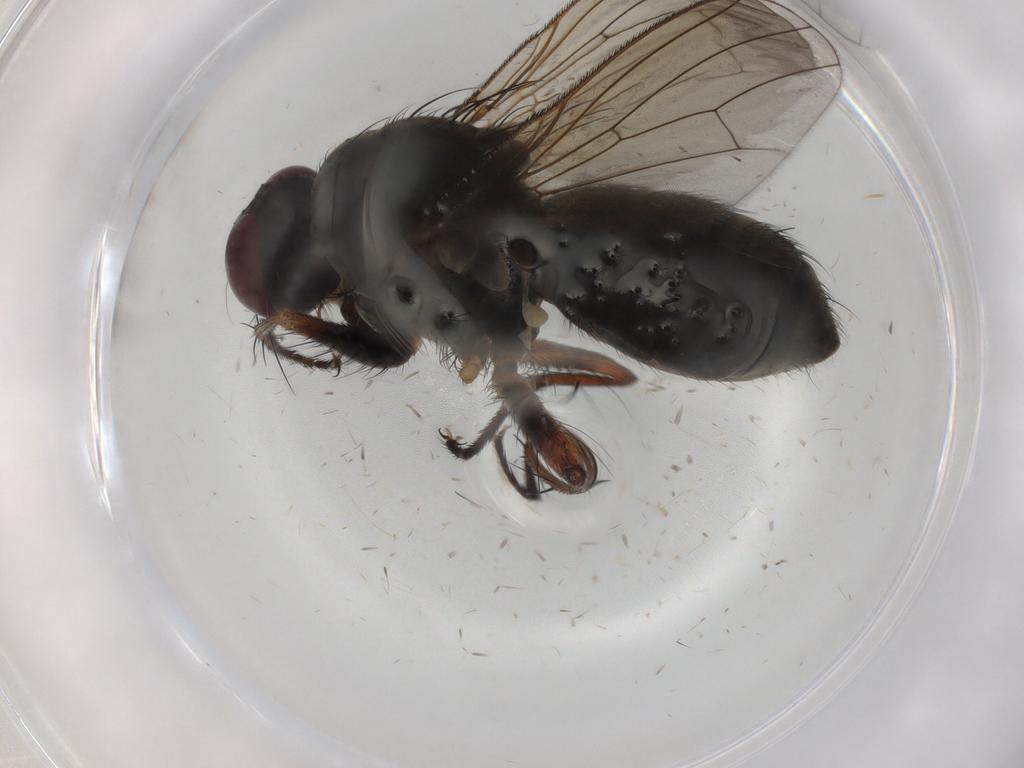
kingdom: Animalia
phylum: Arthropoda
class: Insecta
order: Diptera
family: Muscidae
